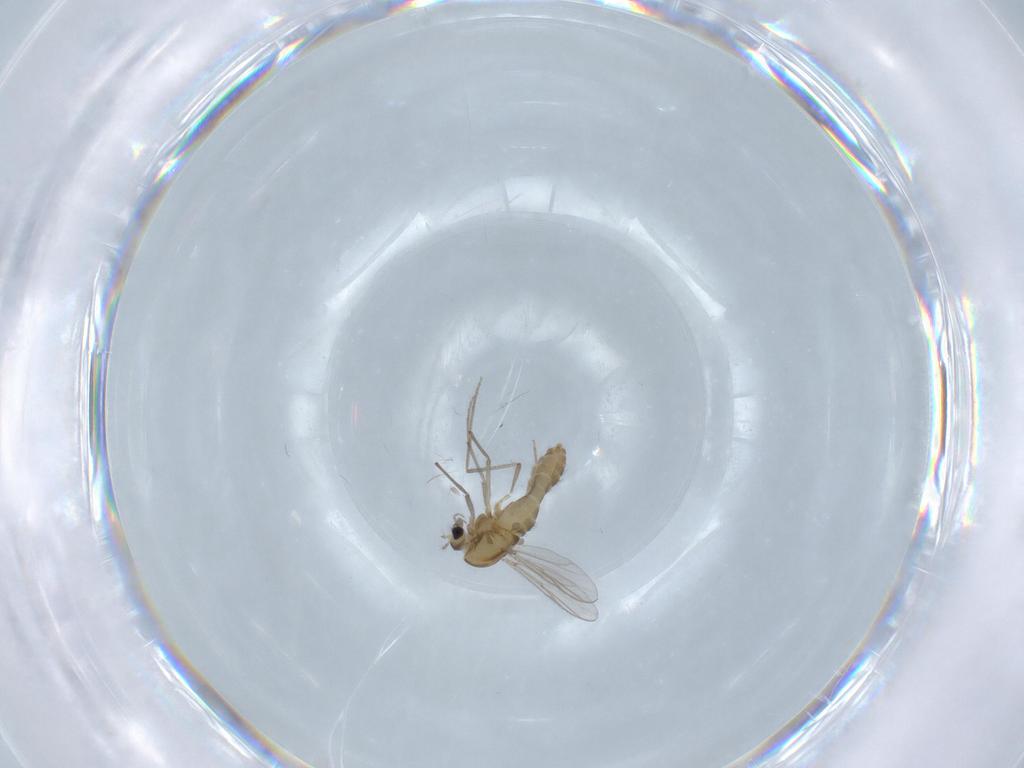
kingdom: Animalia
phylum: Arthropoda
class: Insecta
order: Diptera
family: Chironomidae
